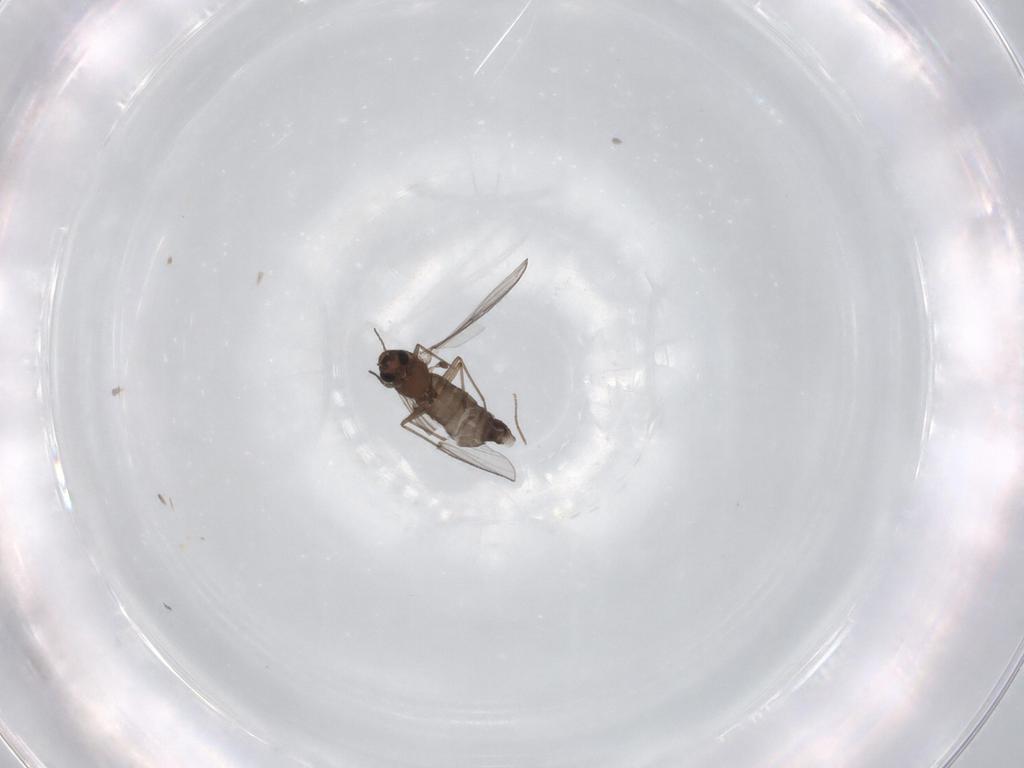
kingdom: Animalia
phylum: Arthropoda
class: Insecta
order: Diptera
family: Chironomidae
